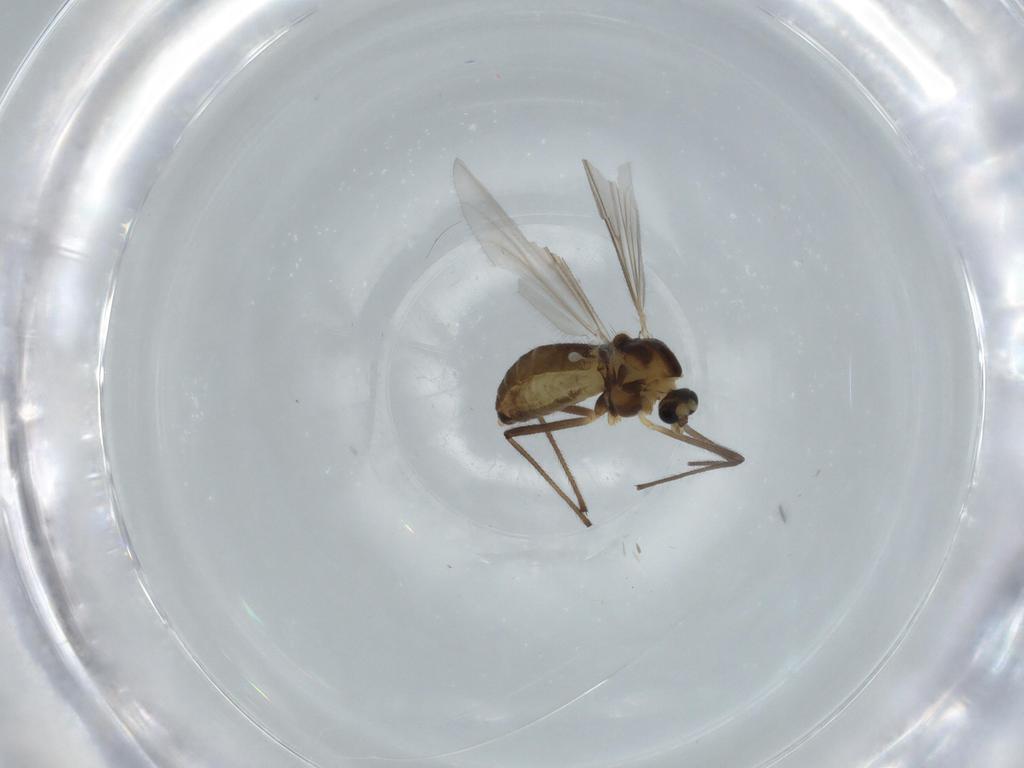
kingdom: Animalia
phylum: Arthropoda
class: Insecta
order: Diptera
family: Chironomidae
